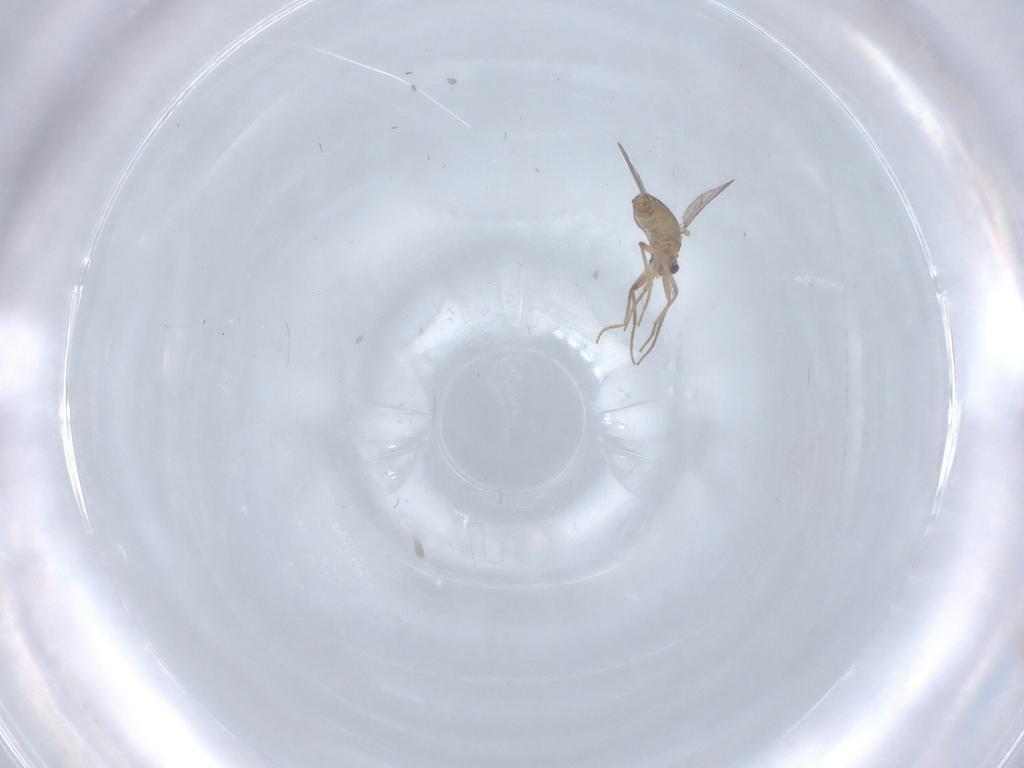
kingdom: Animalia
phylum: Arthropoda
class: Insecta
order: Diptera
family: Chironomidae
